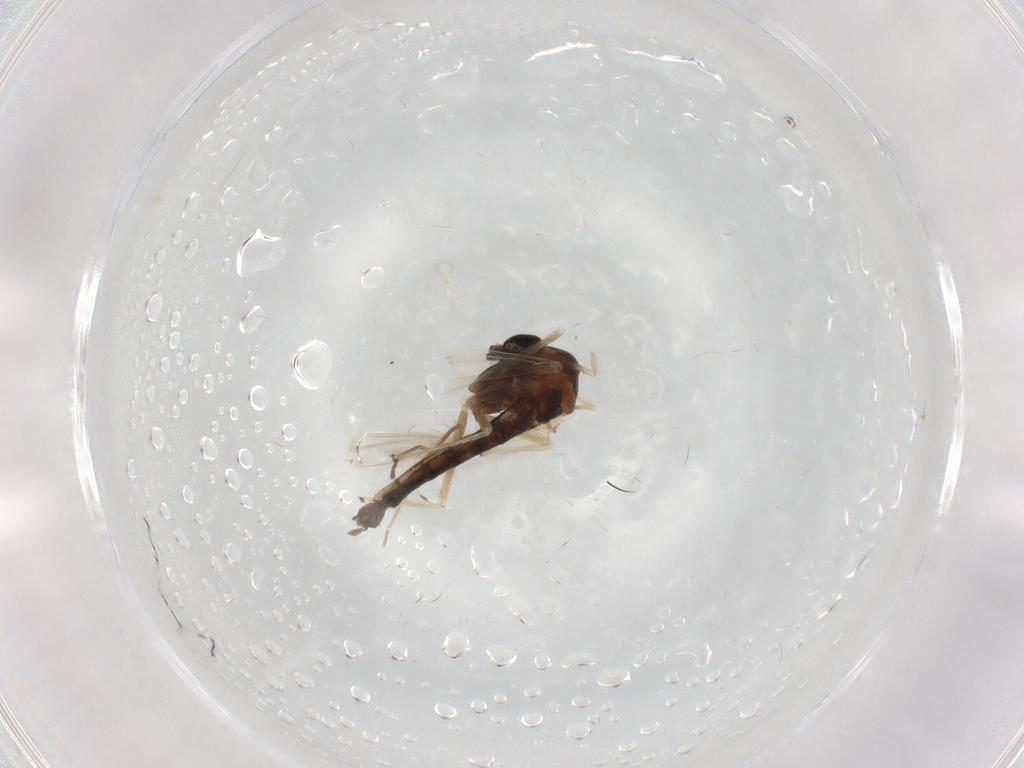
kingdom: Animalia
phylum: Arthropoda
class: Insecta
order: Diptera
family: Chironomidae
